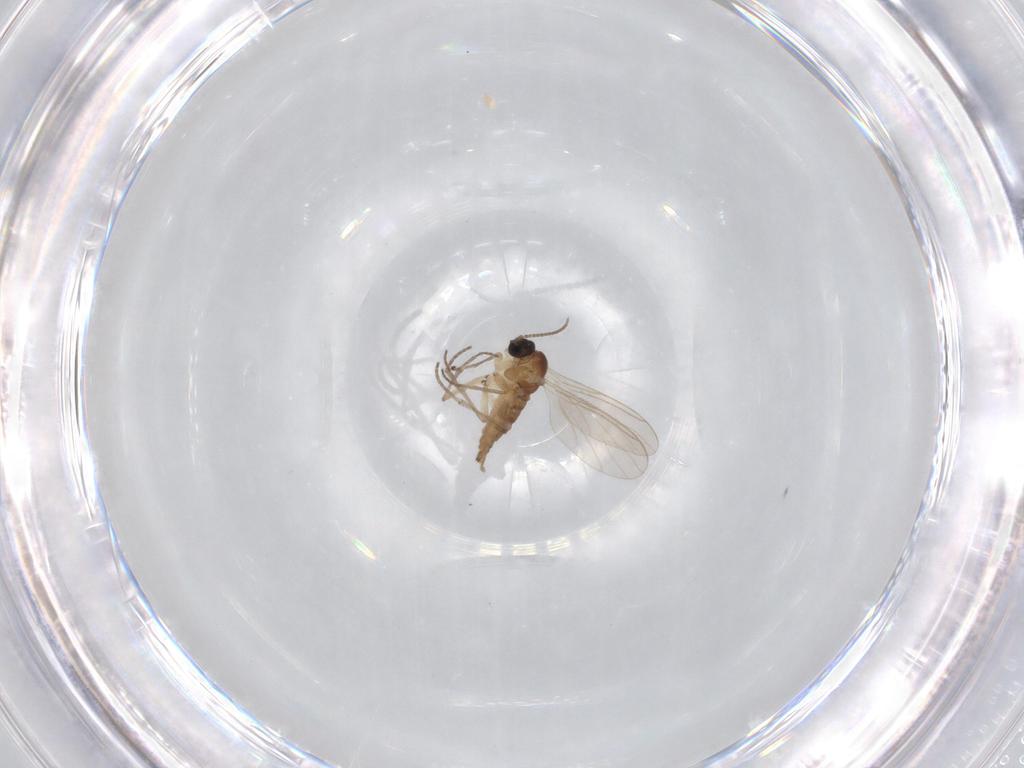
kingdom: Animalia
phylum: Arthropoda
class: Insecta
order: Diptera
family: Sciaridae
